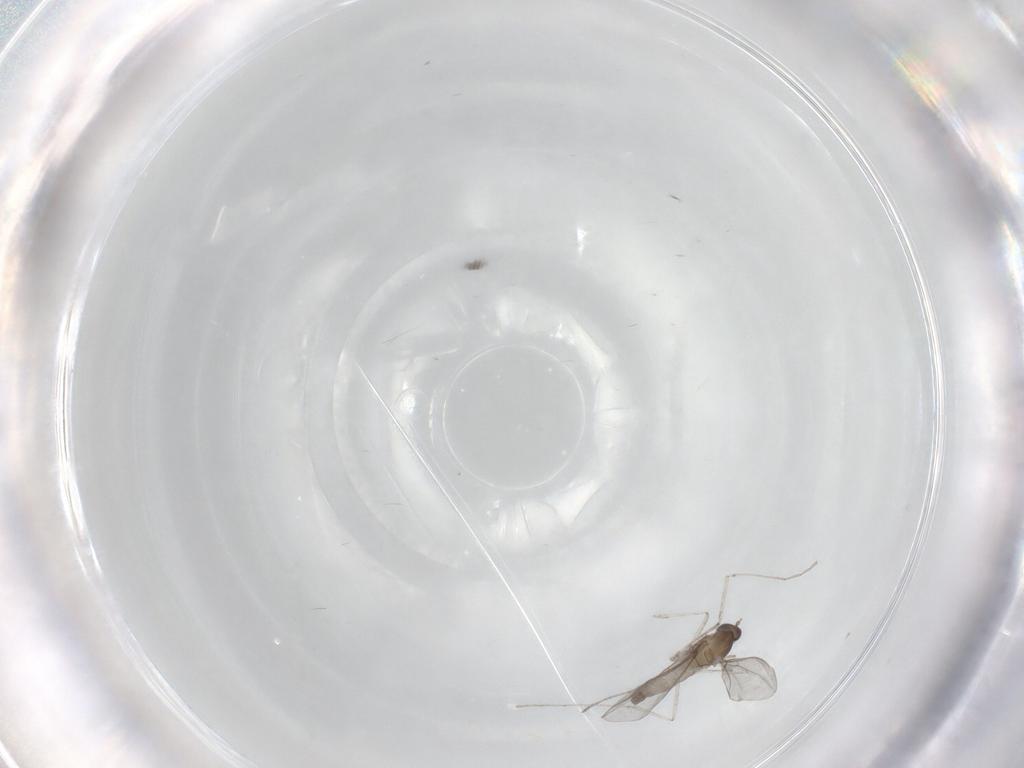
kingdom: Animalia
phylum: Arthropoda
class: Insecta
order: Diptera
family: Cecidomyiidae
